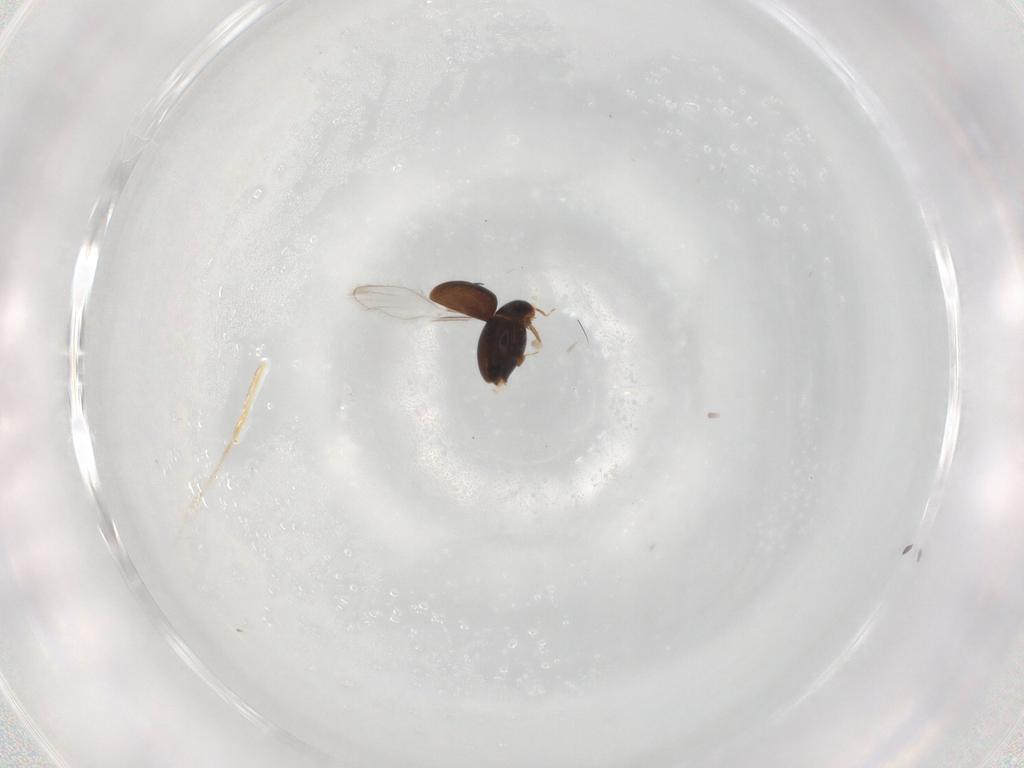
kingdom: Animalia
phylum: Arthropoda
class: Insecta
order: Coleoptera
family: Corylophidae
